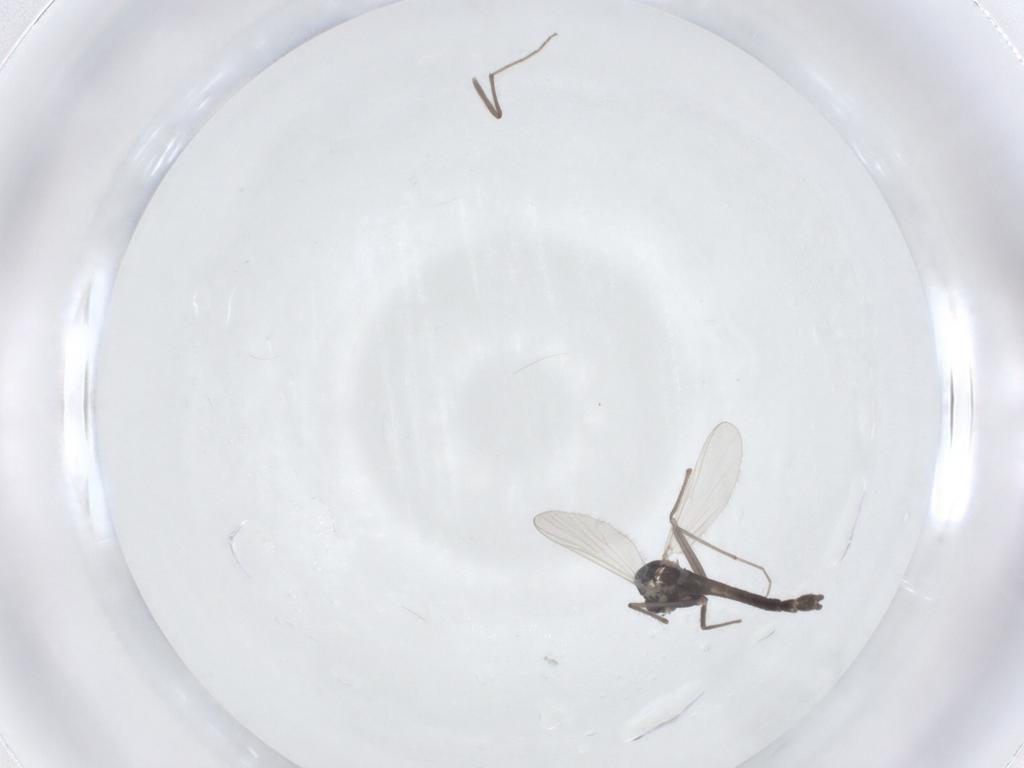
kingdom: Animalia
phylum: Arthropoda
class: Insecta
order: Diptera
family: Chironomidae
